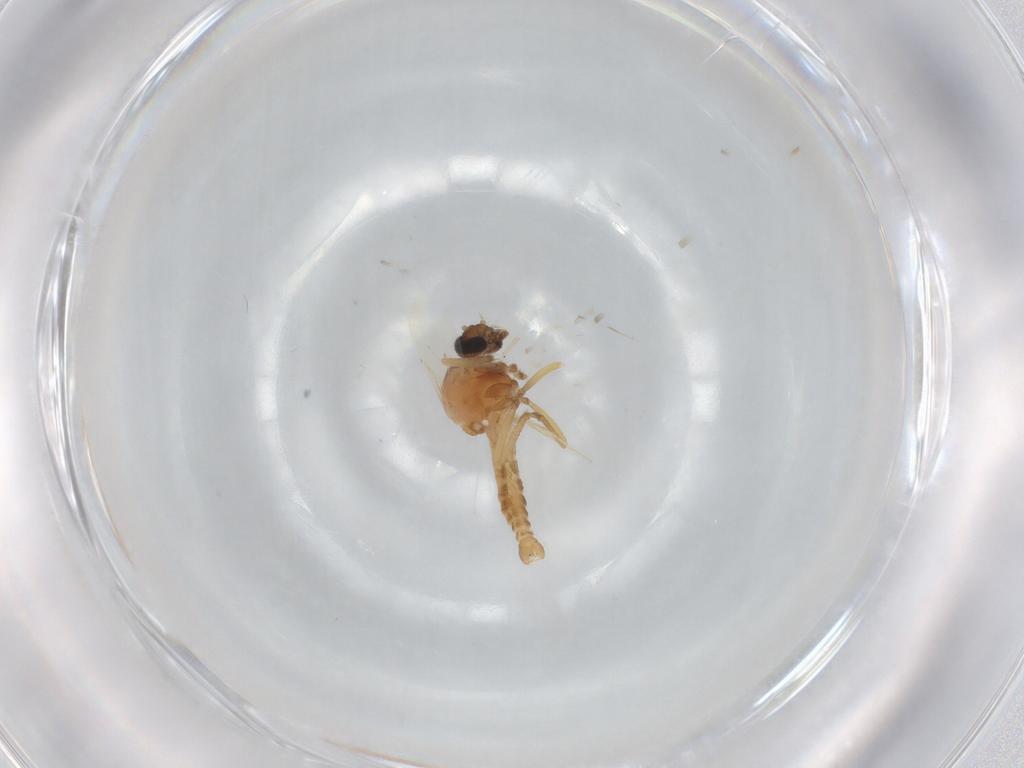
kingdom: Animalia
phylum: Arthropoda
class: Insecta
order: Diptera
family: Ceratopogonidae
